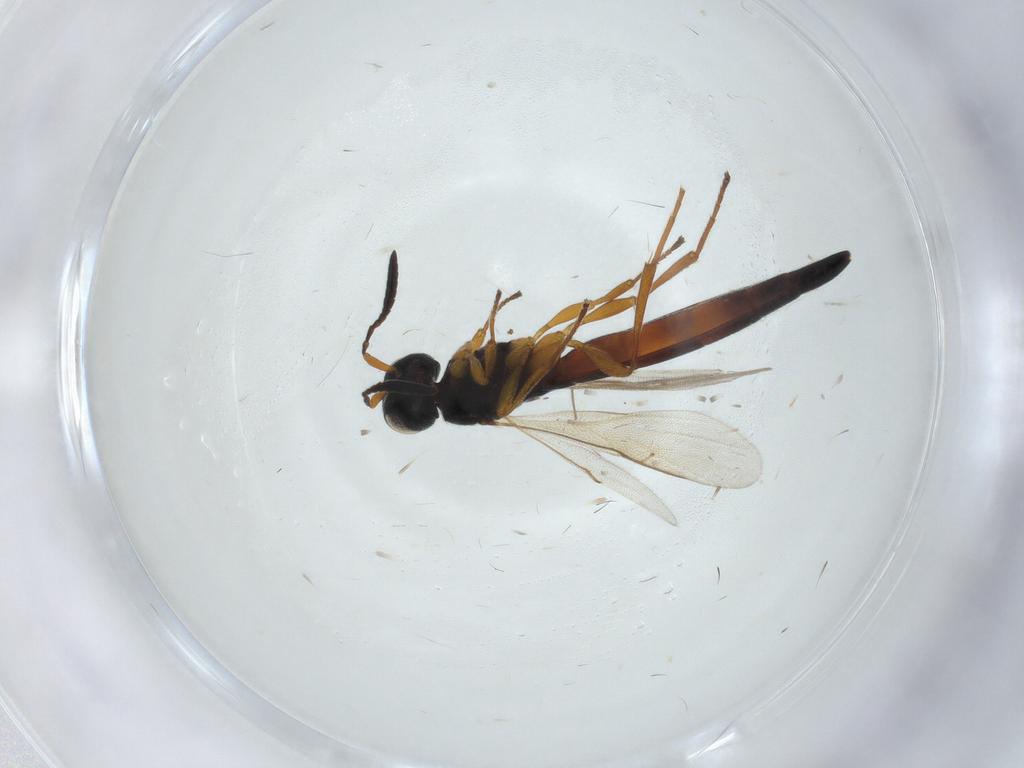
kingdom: Animalia
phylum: Arthropoda
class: Insecta
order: Hymenoptera
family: Scelionidae
